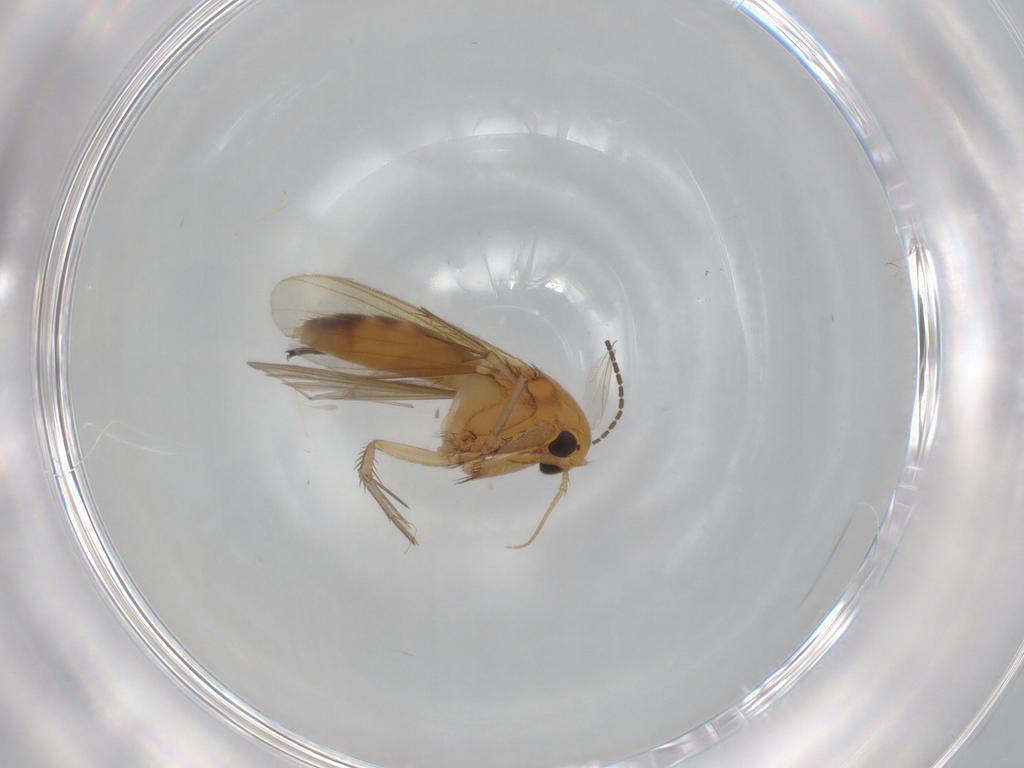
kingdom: Animalia
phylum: Arthropoda
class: Insecta
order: Diptera
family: Mycetophilidae
